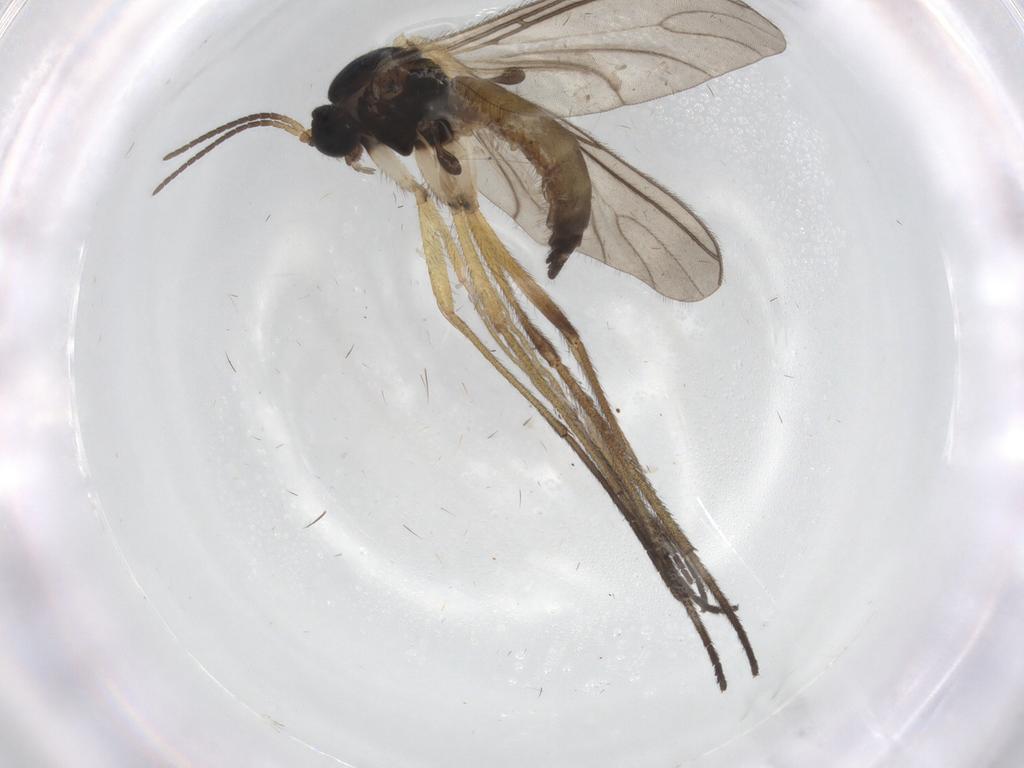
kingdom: Animalia
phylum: Arthropoda
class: Insecta
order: Diptera
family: Sciaridae
